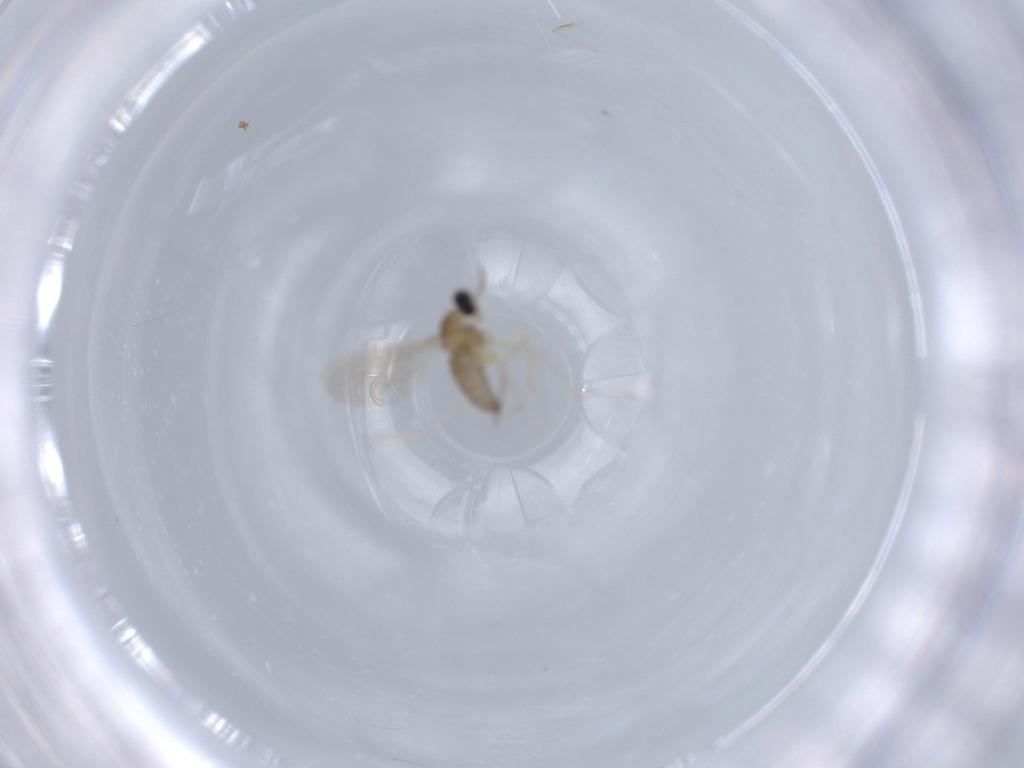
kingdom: Animalia
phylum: Arthropoda
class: Insecta
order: Diptera
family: Cecidomyiidae
